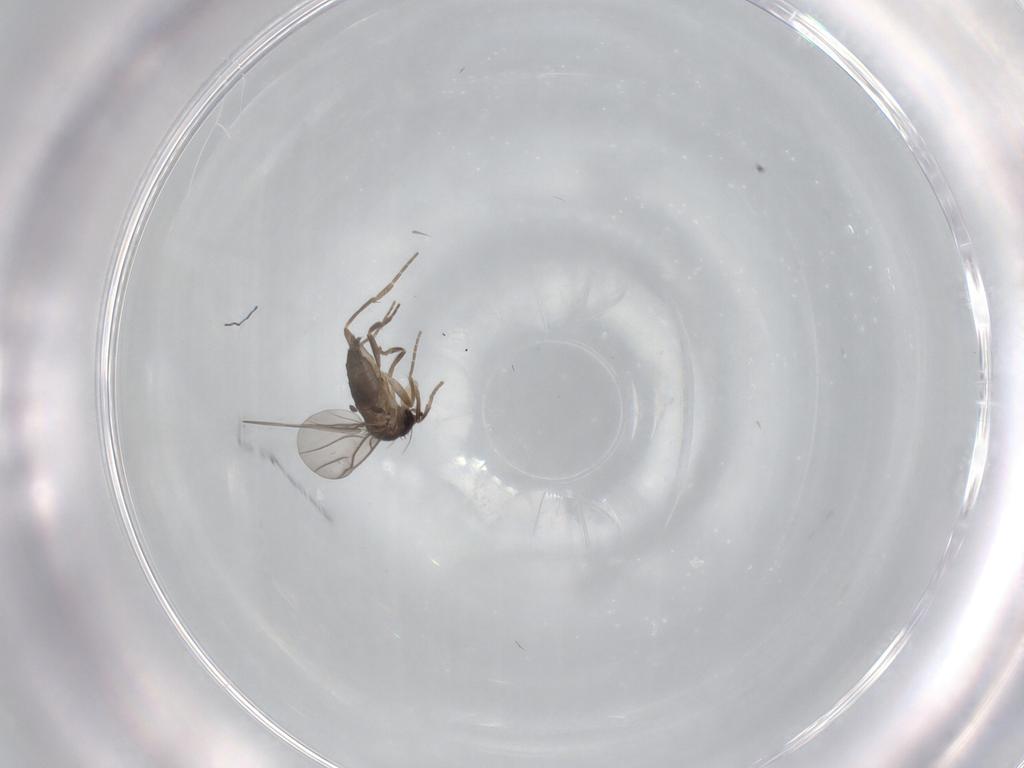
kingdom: Animalia
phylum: Arthropoda
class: Insecta
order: Diptera
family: Phoridae
